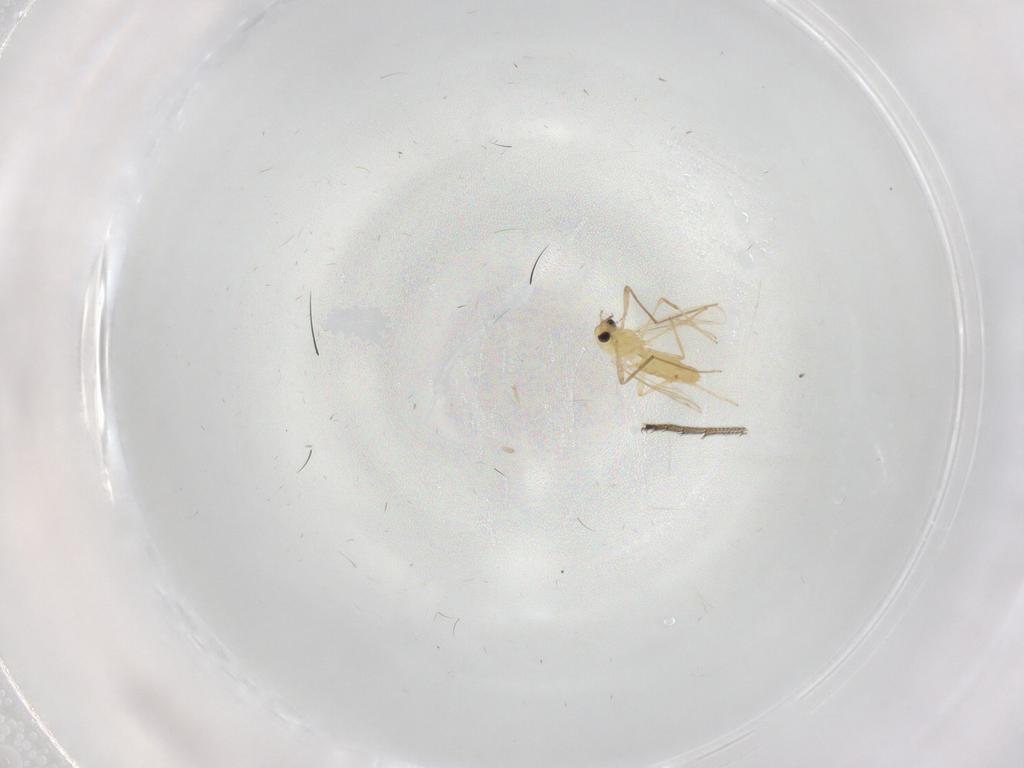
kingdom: Animalia
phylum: Arthropoda
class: Insecta
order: Diptera
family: Chironomidae
